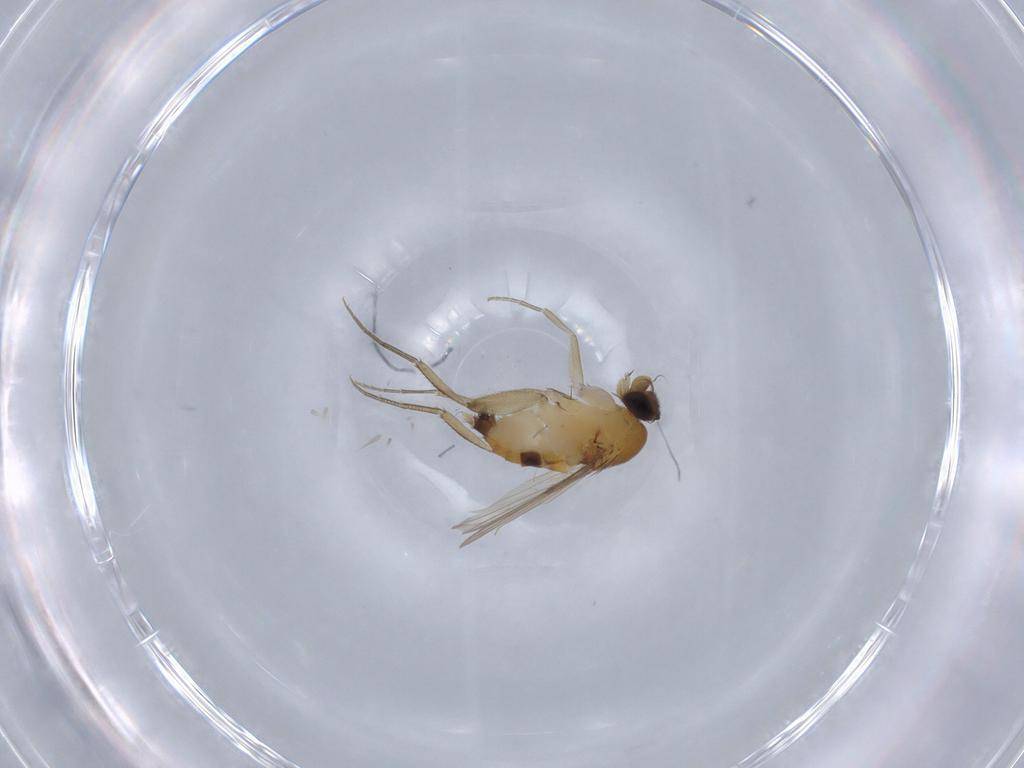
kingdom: Animalia
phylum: Arthropoda
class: Insecta
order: Diptera
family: Phoridae
